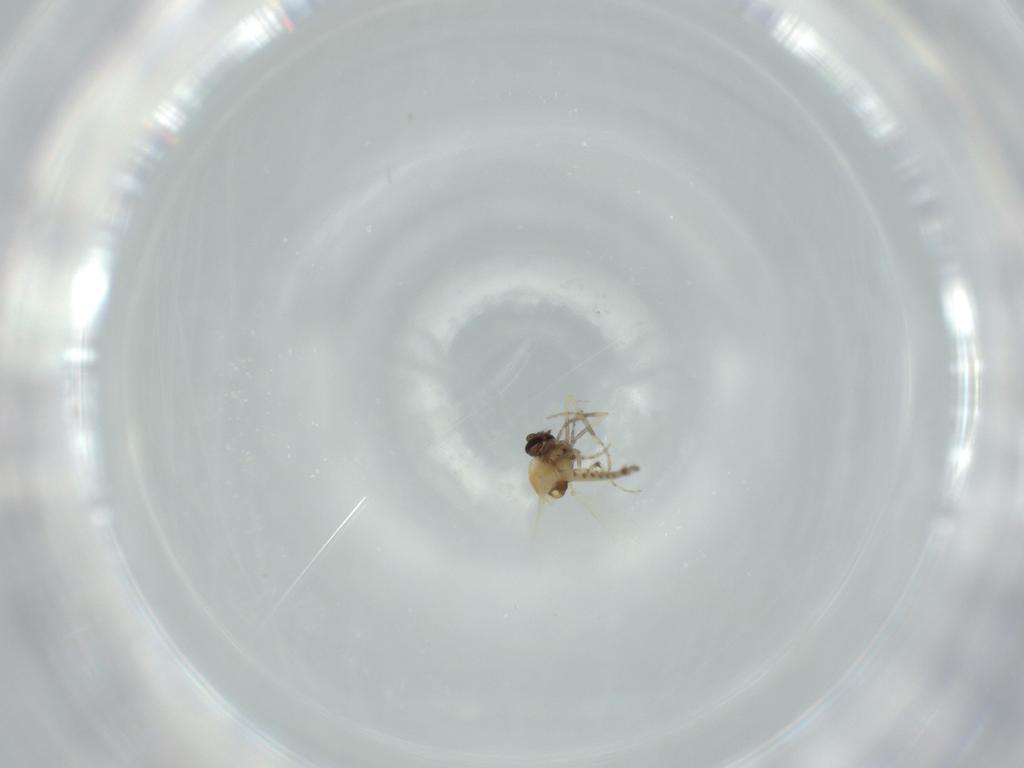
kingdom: Animalia
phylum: Arthropoda
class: Insecta
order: Diptera
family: Ceratopogonidae
